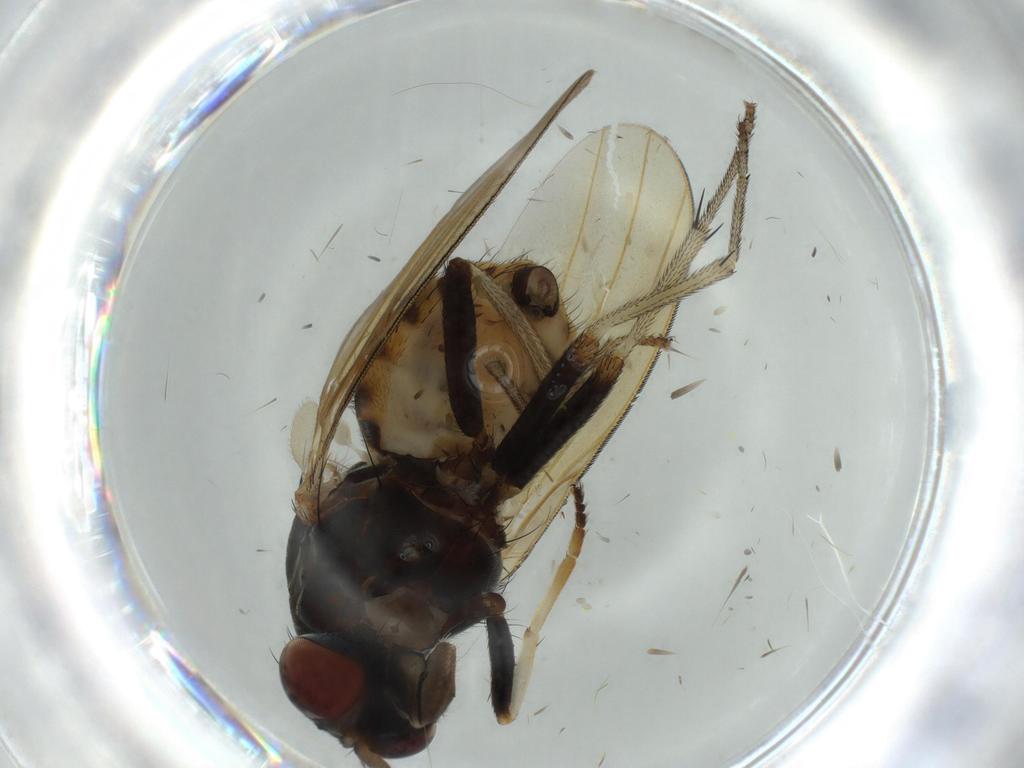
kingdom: Animalia
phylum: Arthropoda
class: Insecta
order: Diptera
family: Lauxaniidae
